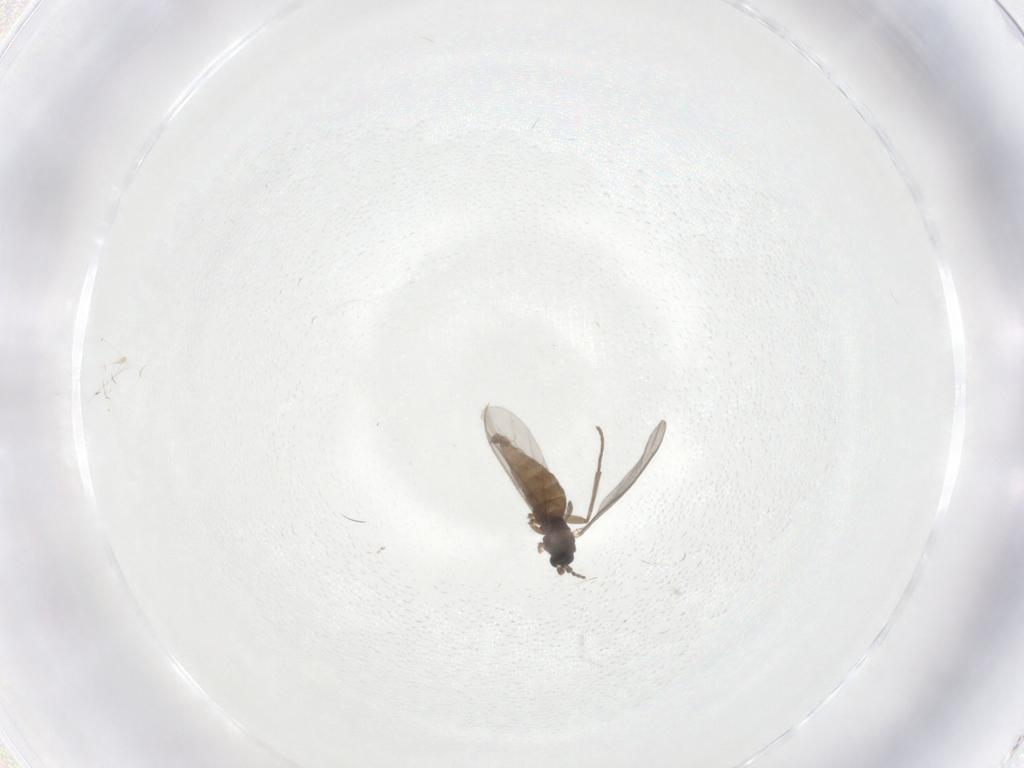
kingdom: Animalia
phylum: Arthropoda
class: Insecta
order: Diptera
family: Sciaridae
